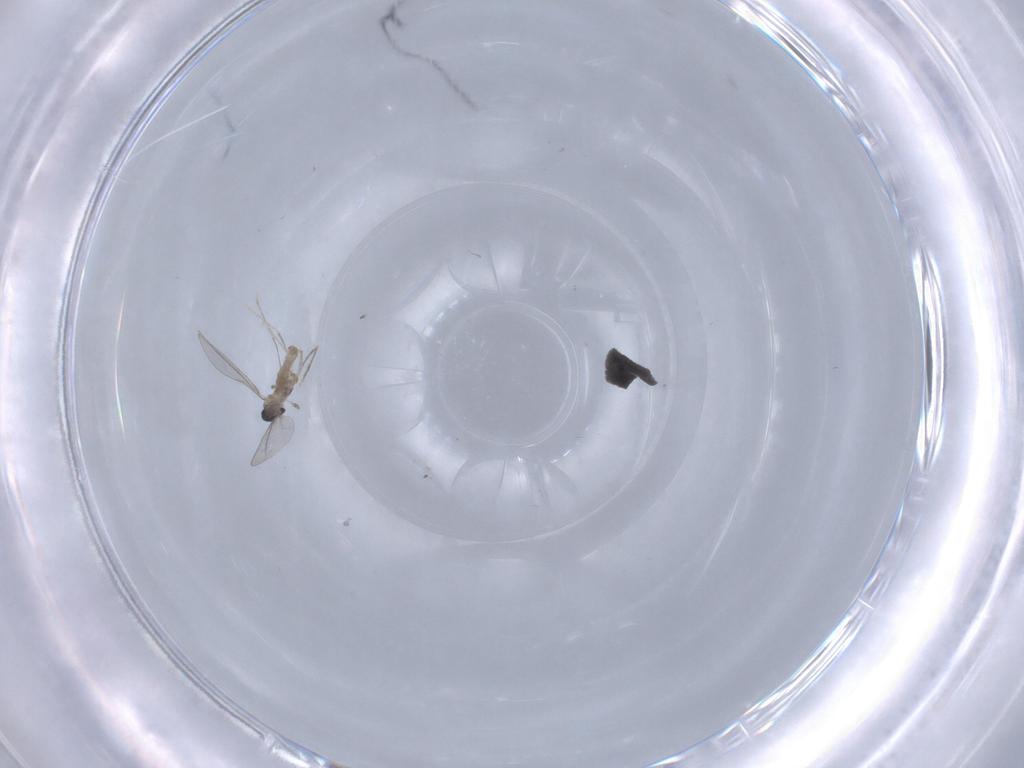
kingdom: Animalia
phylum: Arthropoda
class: Insecta
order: Diptera
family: Cecidomyiidae
